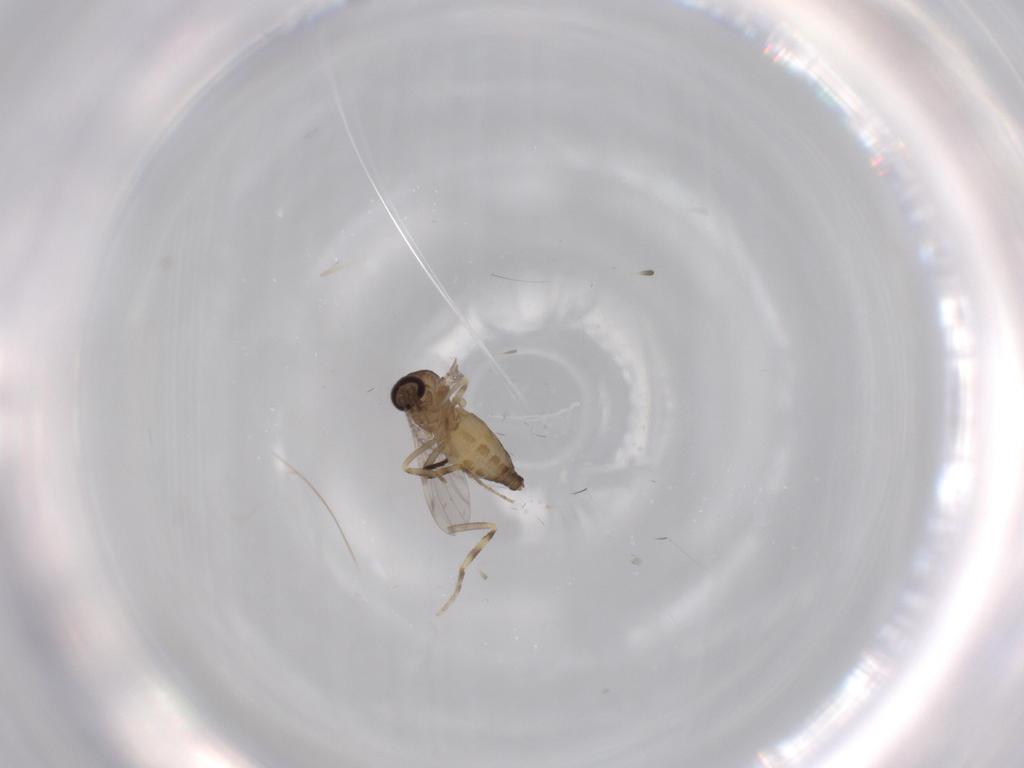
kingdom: Animalia
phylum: Arthropoda
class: Insecta
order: Diptera
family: Ceratopogonidae
